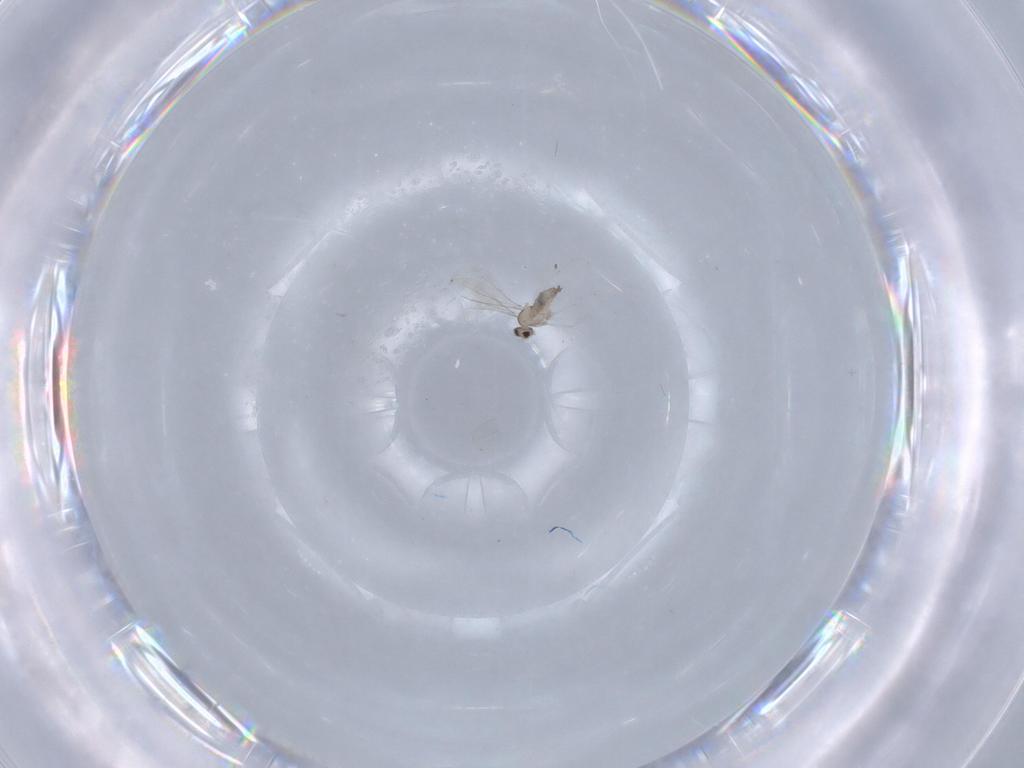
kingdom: Animalia
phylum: Arthropoda
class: Insecta
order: Diptera
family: Cecidomyiidae
